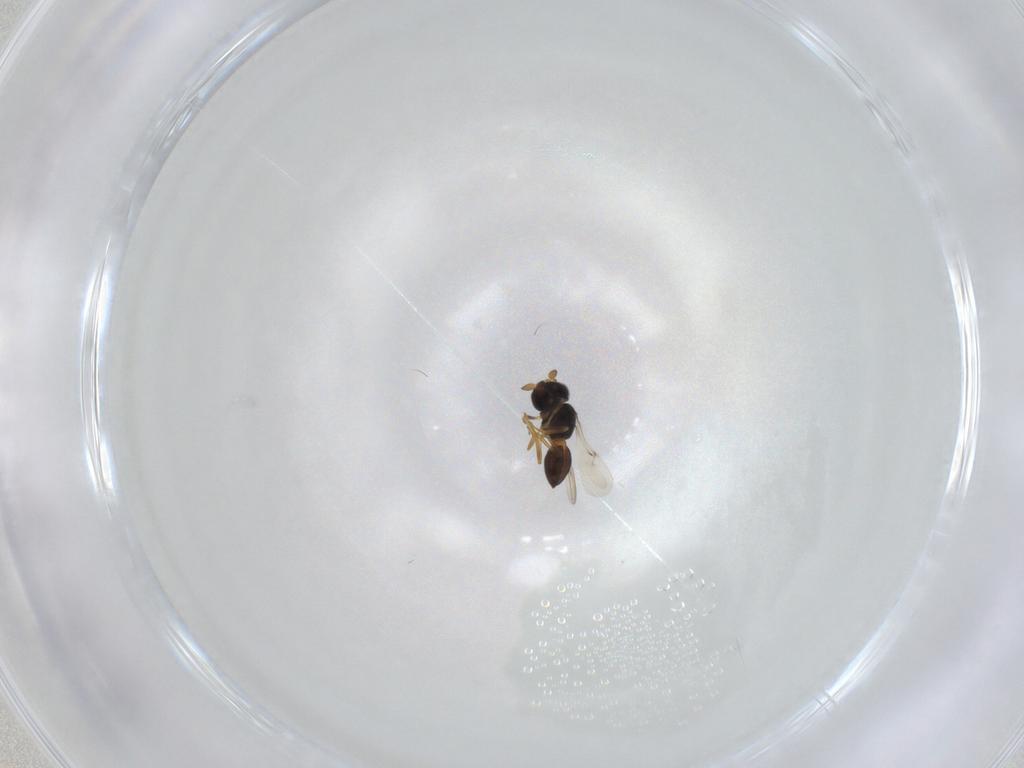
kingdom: Animalia
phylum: Arthropoda
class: Insecta
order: Hymenoptera
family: Scelionidae
